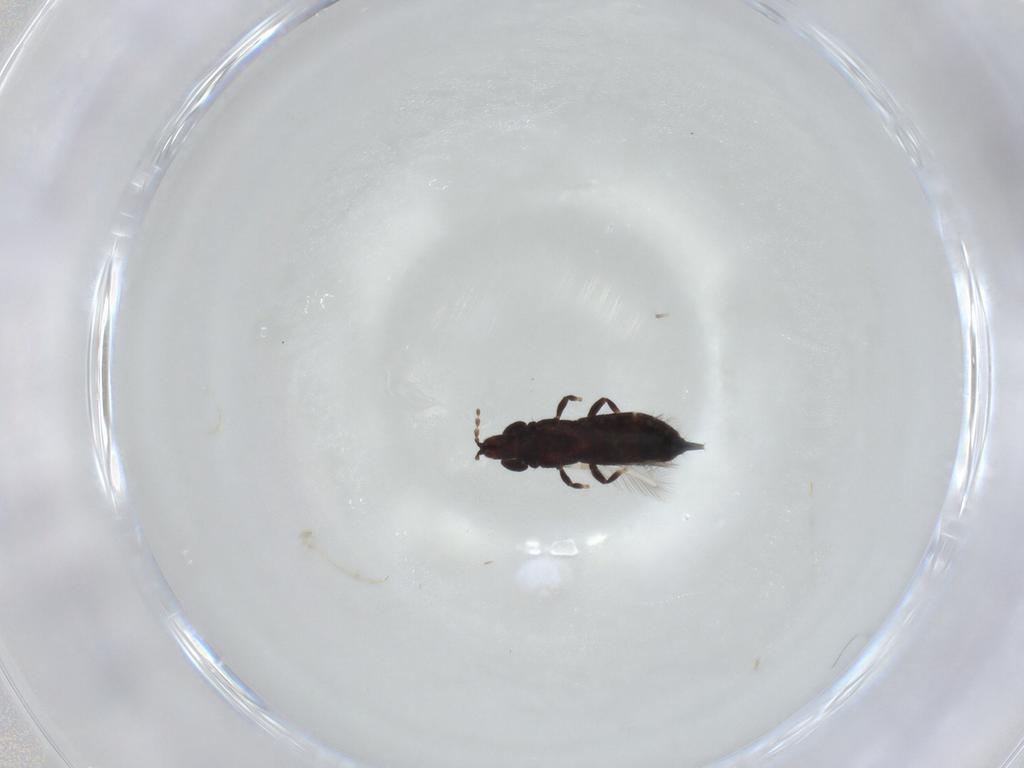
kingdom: Animalia
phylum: Arthropoda
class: Insecta
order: Thysanoptera
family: Phlaeothripidae
